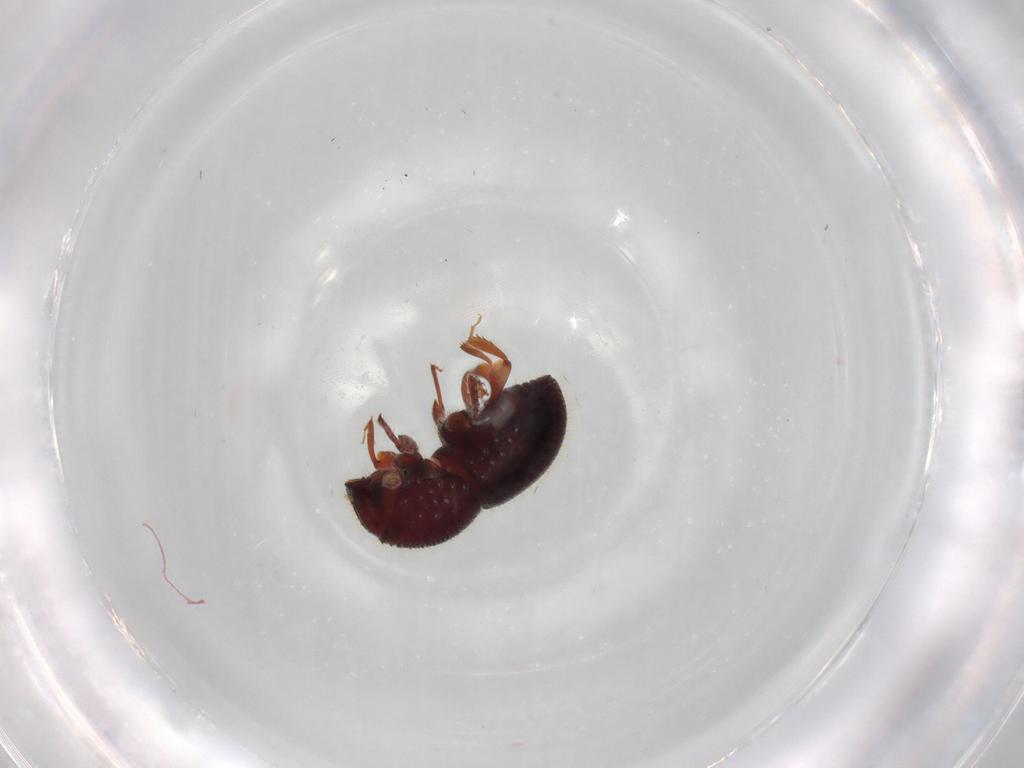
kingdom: Animalia
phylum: Arthropoda
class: Insecta
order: Coleoptera
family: Curculionidae
